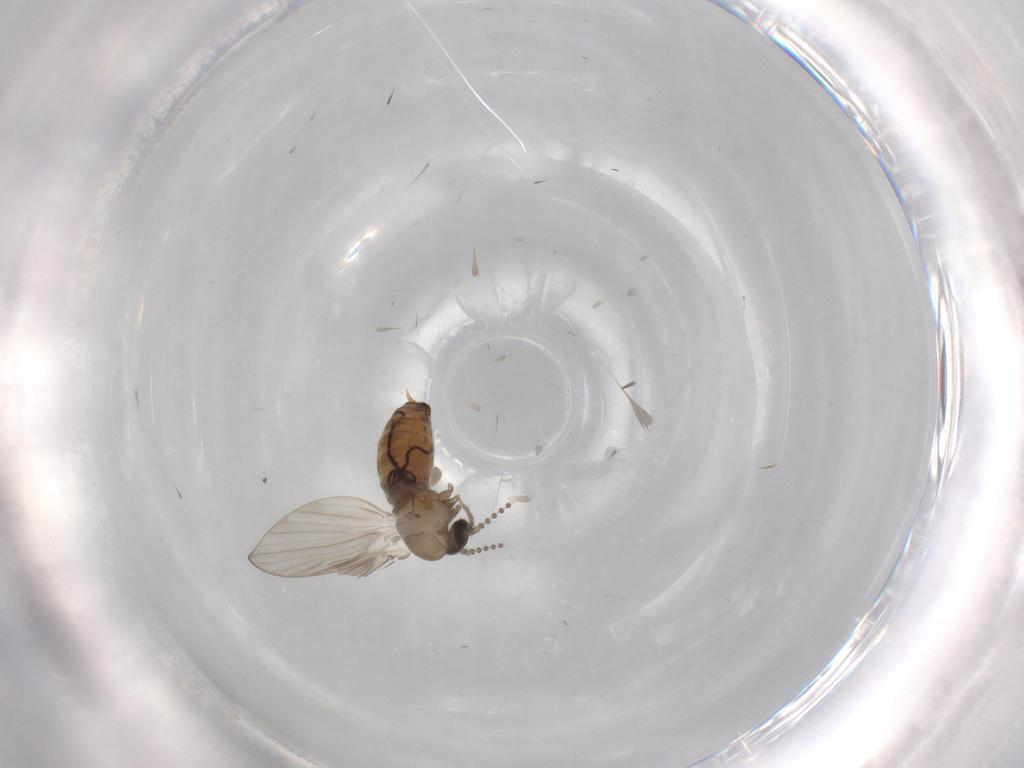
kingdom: Animalia
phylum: Arthropoda
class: Insecta
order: Diptera
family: Psychodidae
